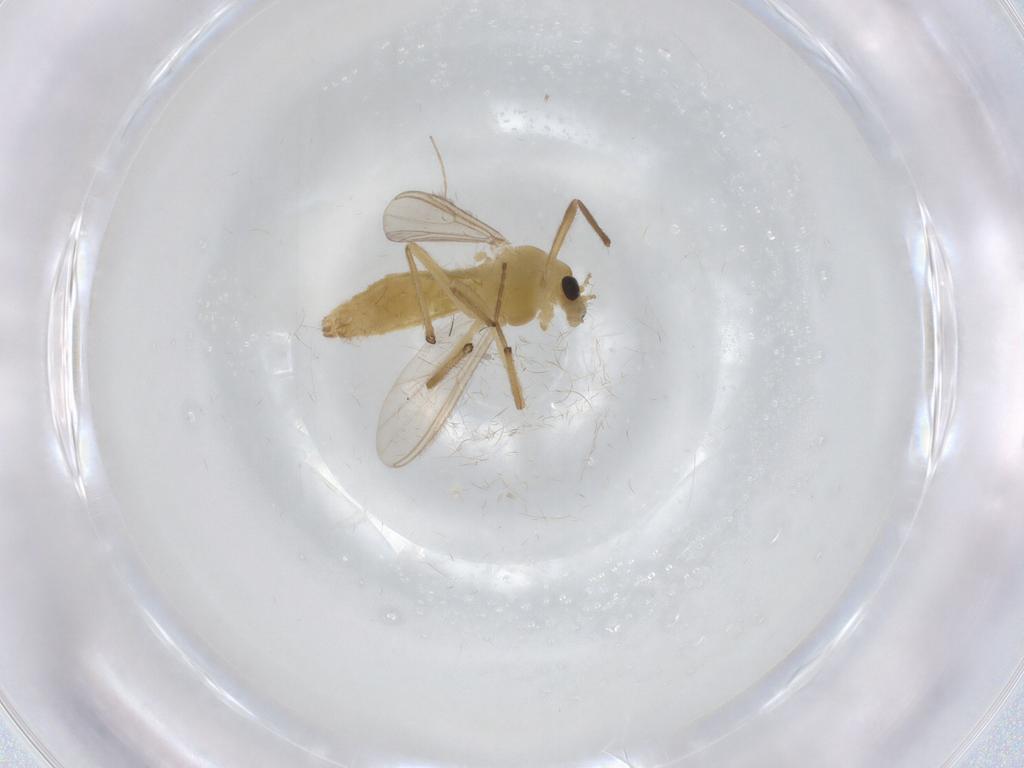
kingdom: Animalia
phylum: Arthropoda
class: Insecta
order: Diptera
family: Chironomidae
